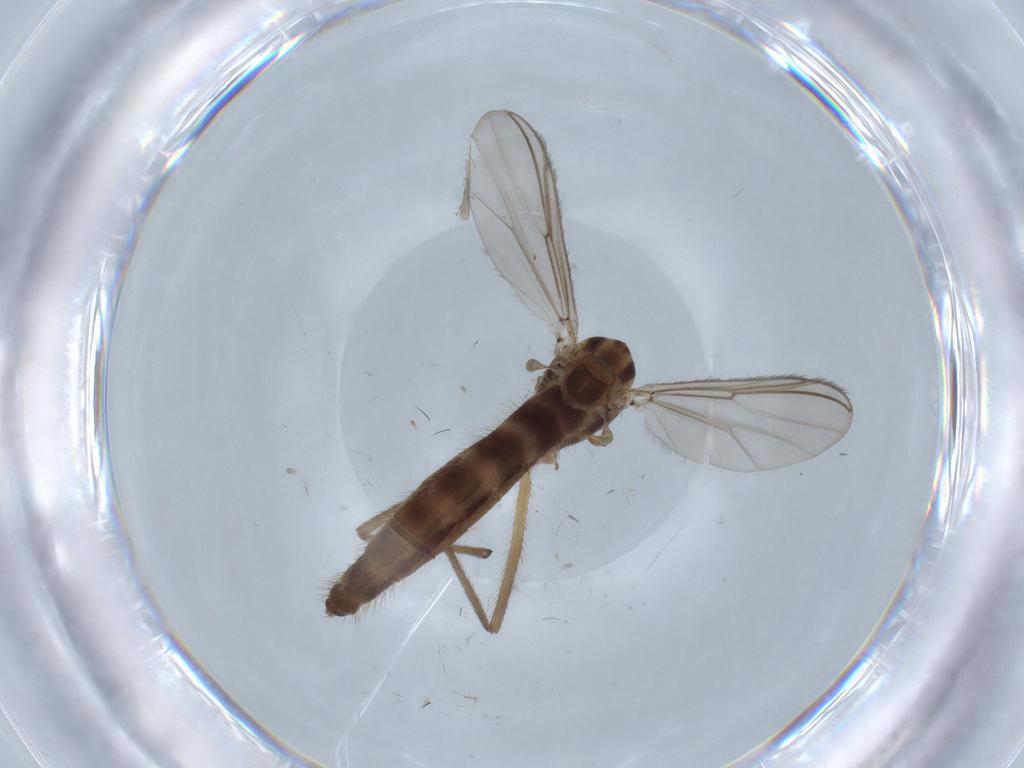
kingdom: Animalia
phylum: Arthropoda
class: Insecta
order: Diptera
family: Chironomidae
